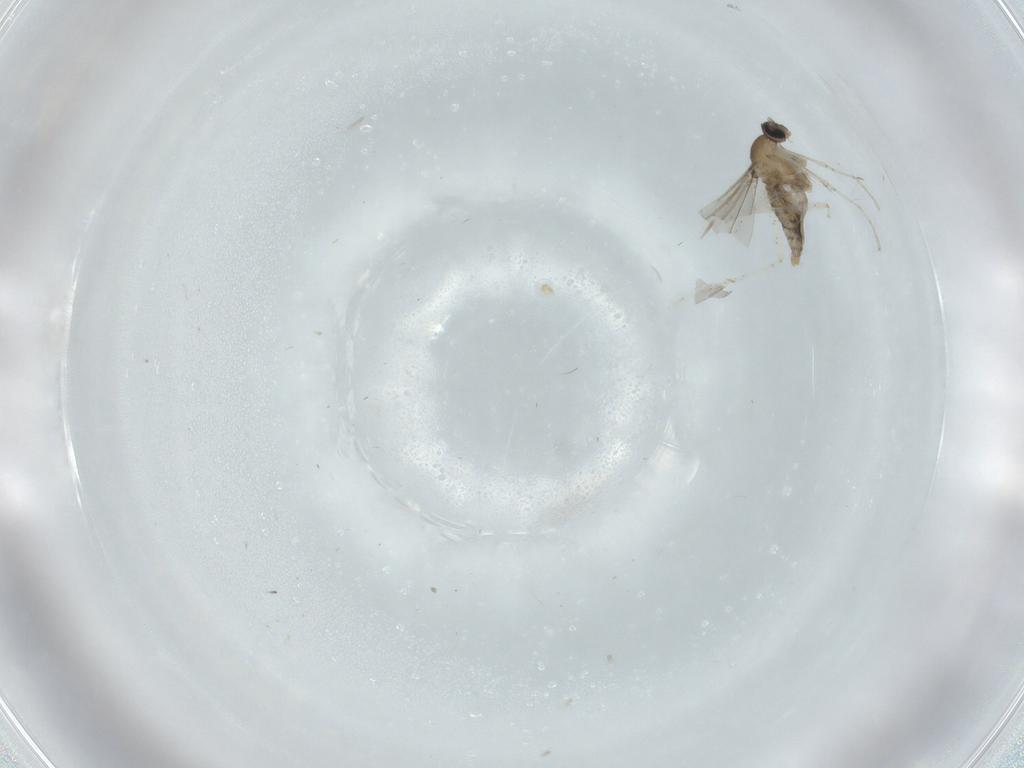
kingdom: Animalia
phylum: Arthropoda
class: Insecta
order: Diptera
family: Cecidomyiidae
